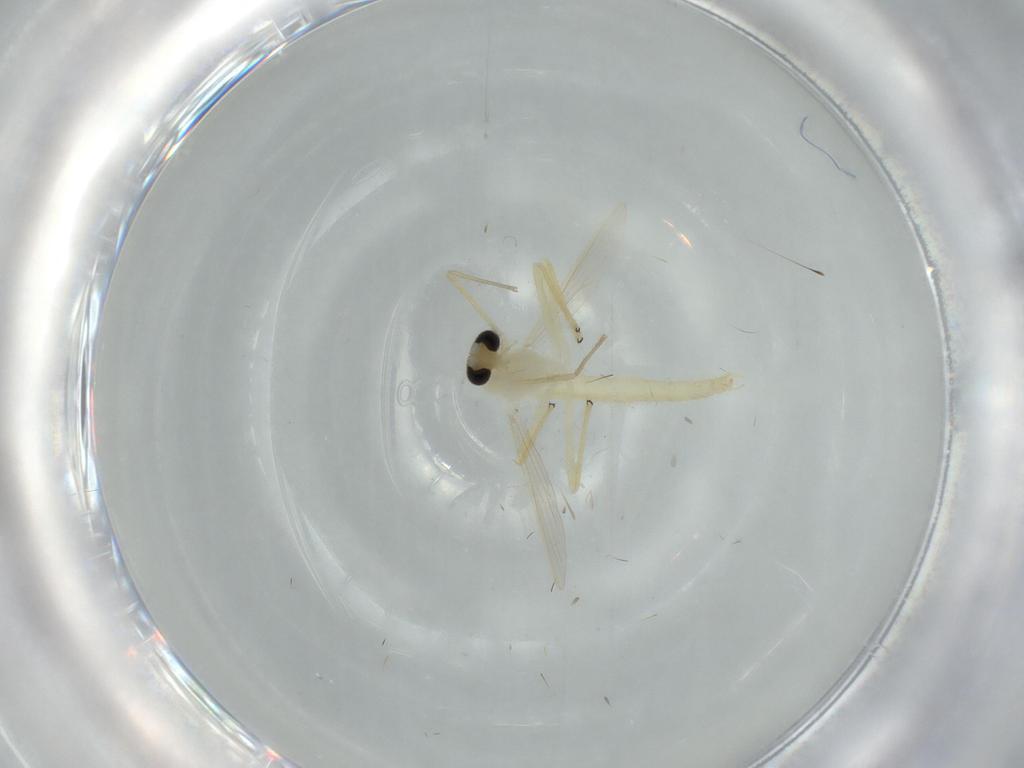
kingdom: Animalia
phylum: Arthropoda
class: Insecta
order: Diptera
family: Chironomidae
